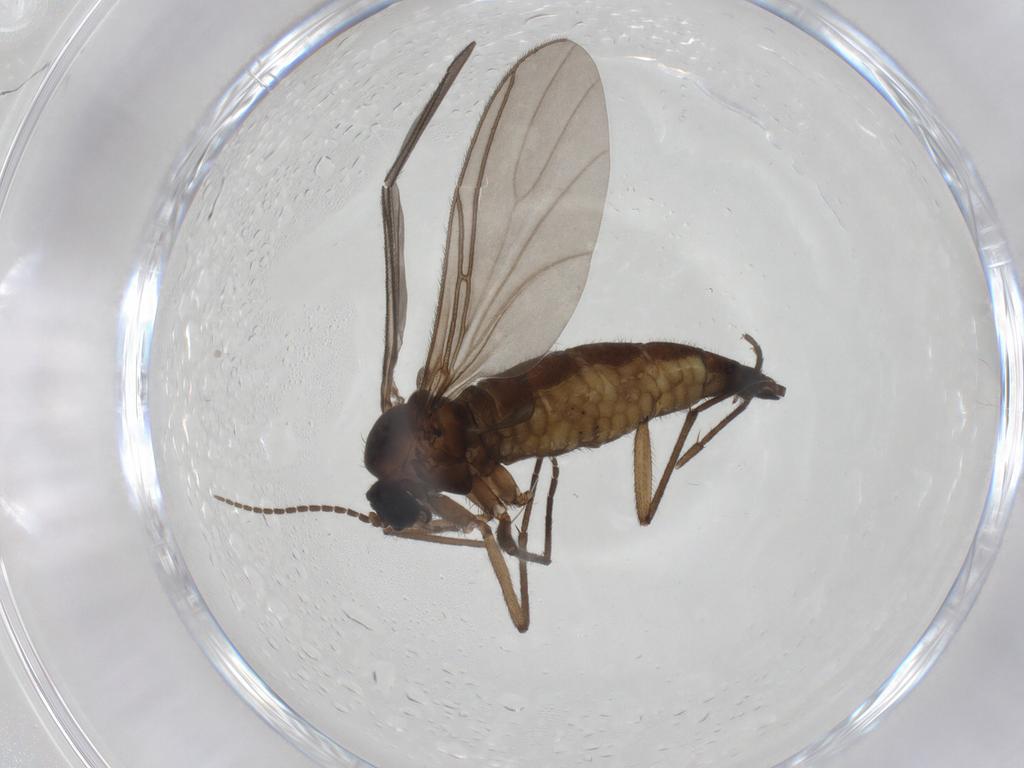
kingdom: Animalia
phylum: Arthropoda
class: Insecta
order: Diptera
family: Sciaridae
